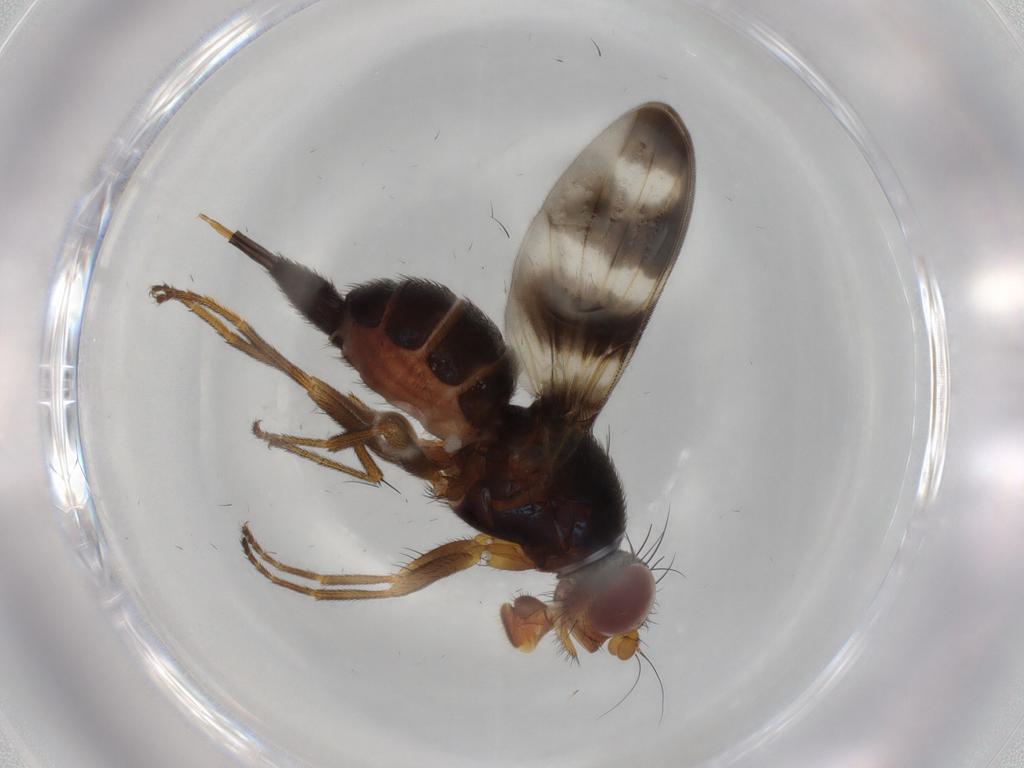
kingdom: Animalia
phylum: Arthropoda
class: Insecta
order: Diptera
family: Ulidiidae
